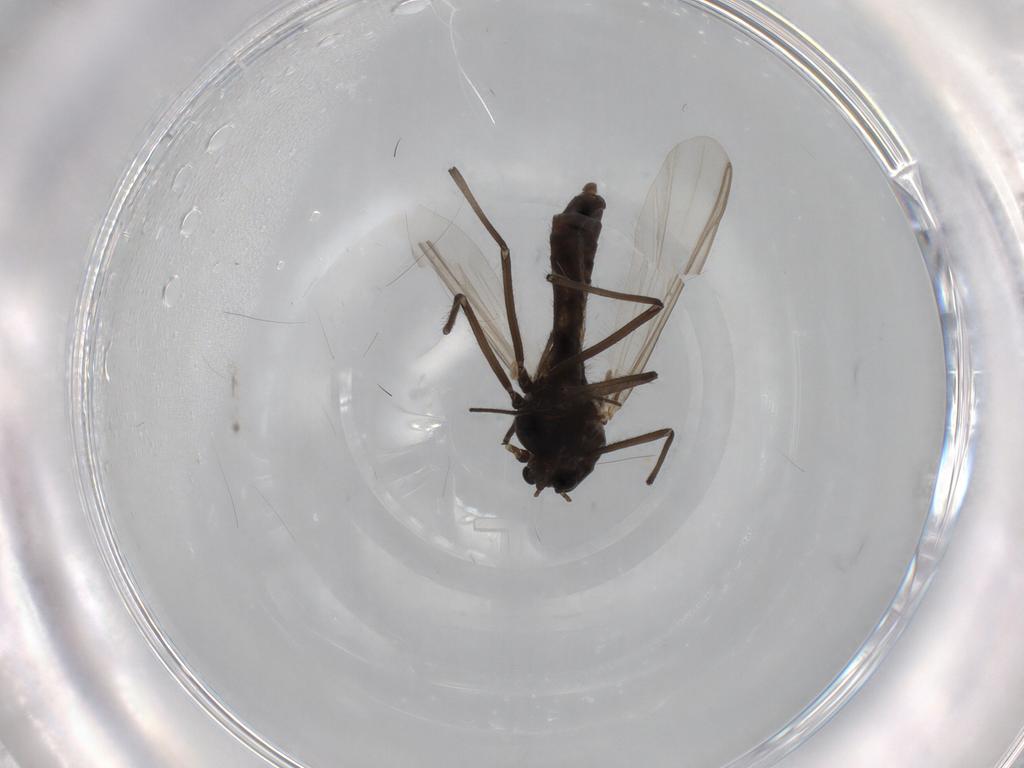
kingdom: Animalia
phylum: Arthropoda
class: Insecta
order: Diptera
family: Chironomidae
